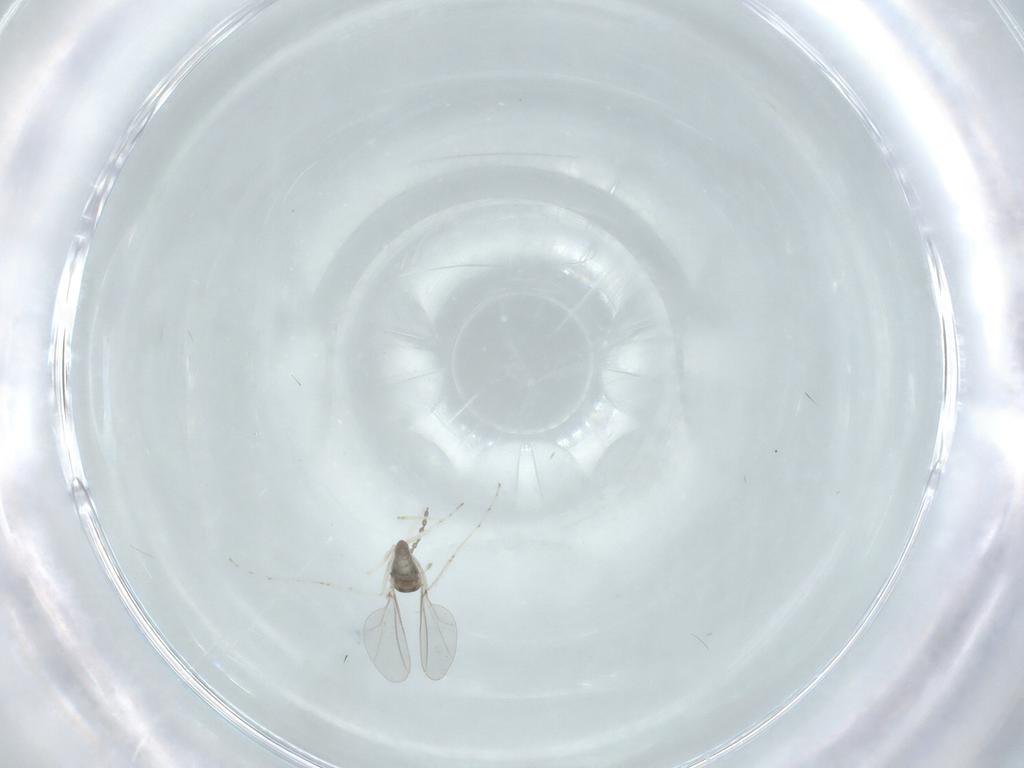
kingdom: Animalia
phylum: Arthropoda
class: Insecta
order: Diptera
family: Cecidomyiidae
